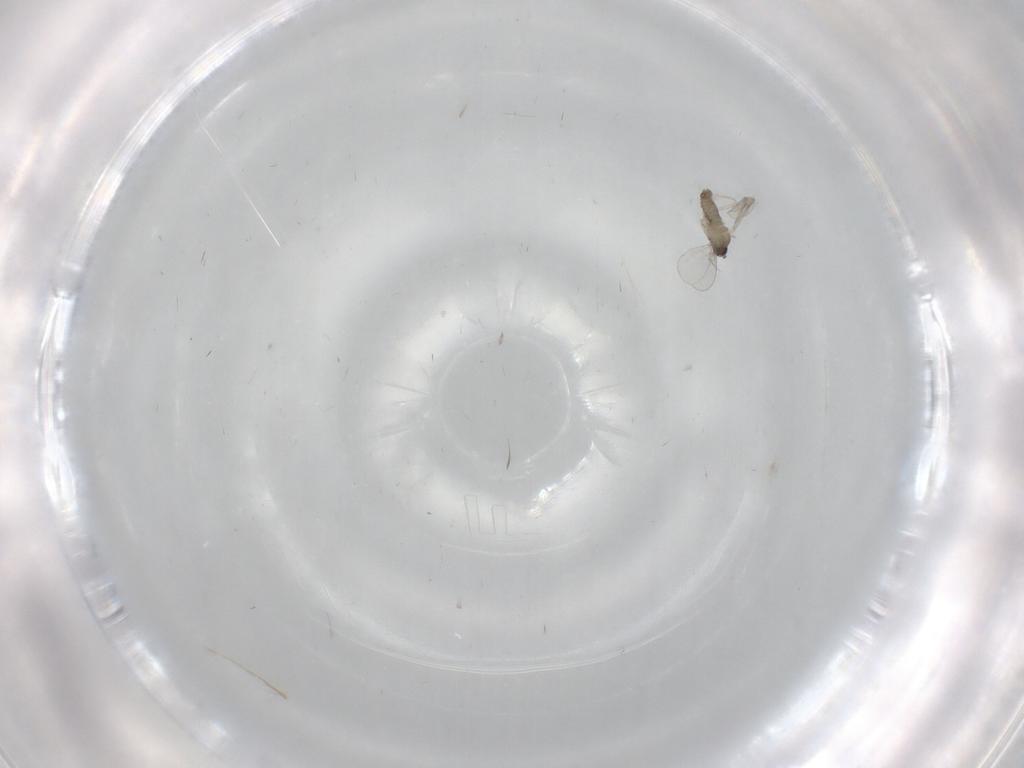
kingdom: Animalia
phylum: Arthropoda
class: Insecta
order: Diptera
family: Cecidomyiidae
